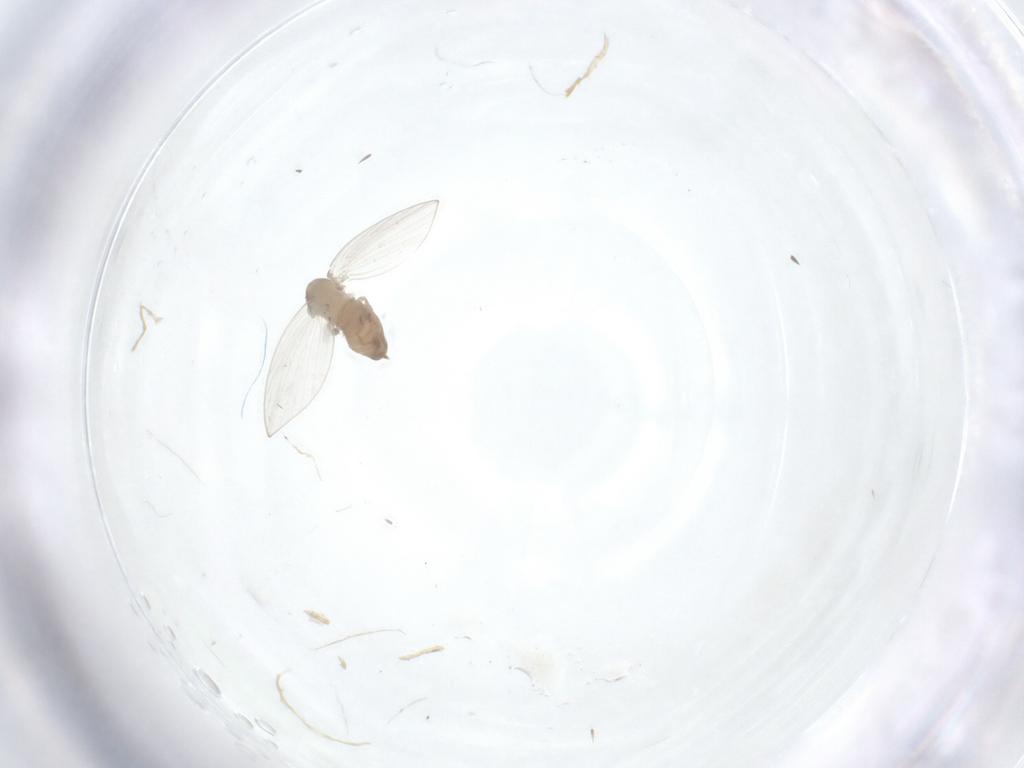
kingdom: Animalia
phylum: Arthropoda
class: Insecta
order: Diptera
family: Psychodidae
